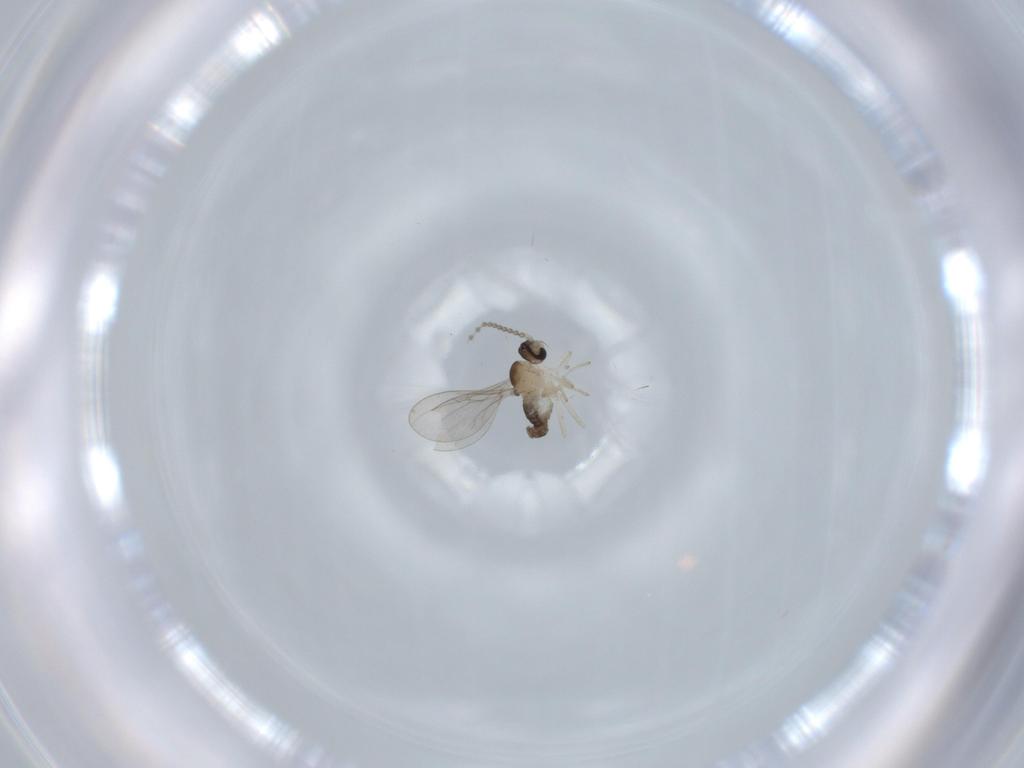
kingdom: Animalia
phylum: Arthropoda
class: Insecta
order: Diptera
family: Cecidomyiidae
